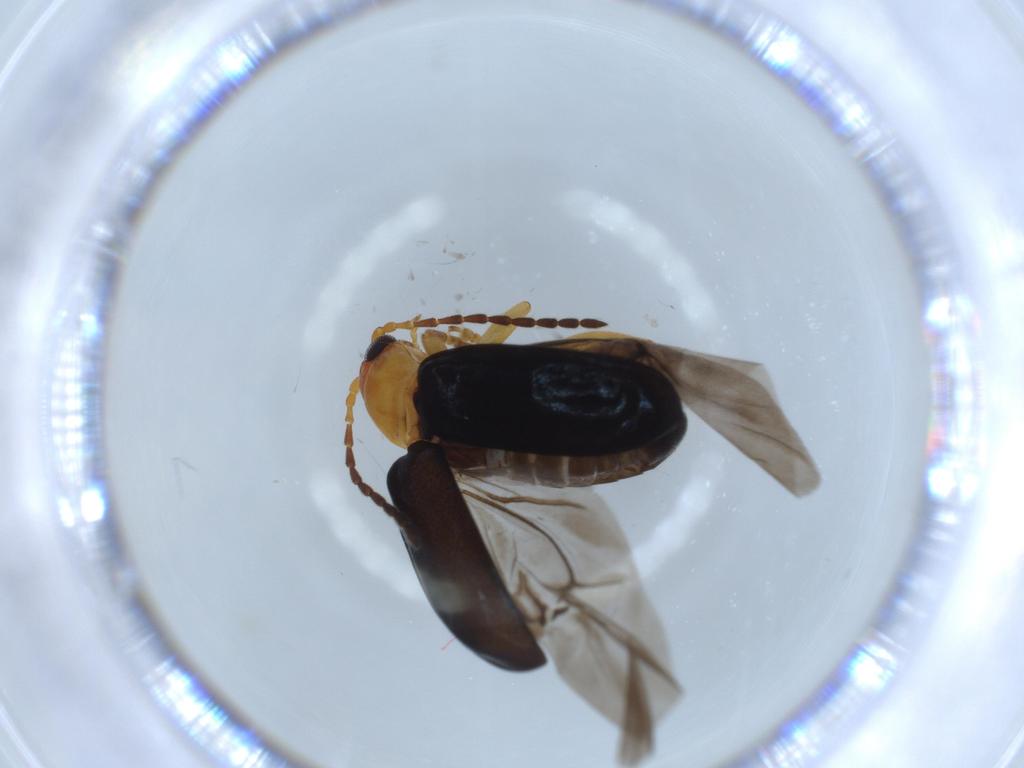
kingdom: Animalia
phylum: Arthropoda
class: Insecta
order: Coleoptera
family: Chrysomelidae
